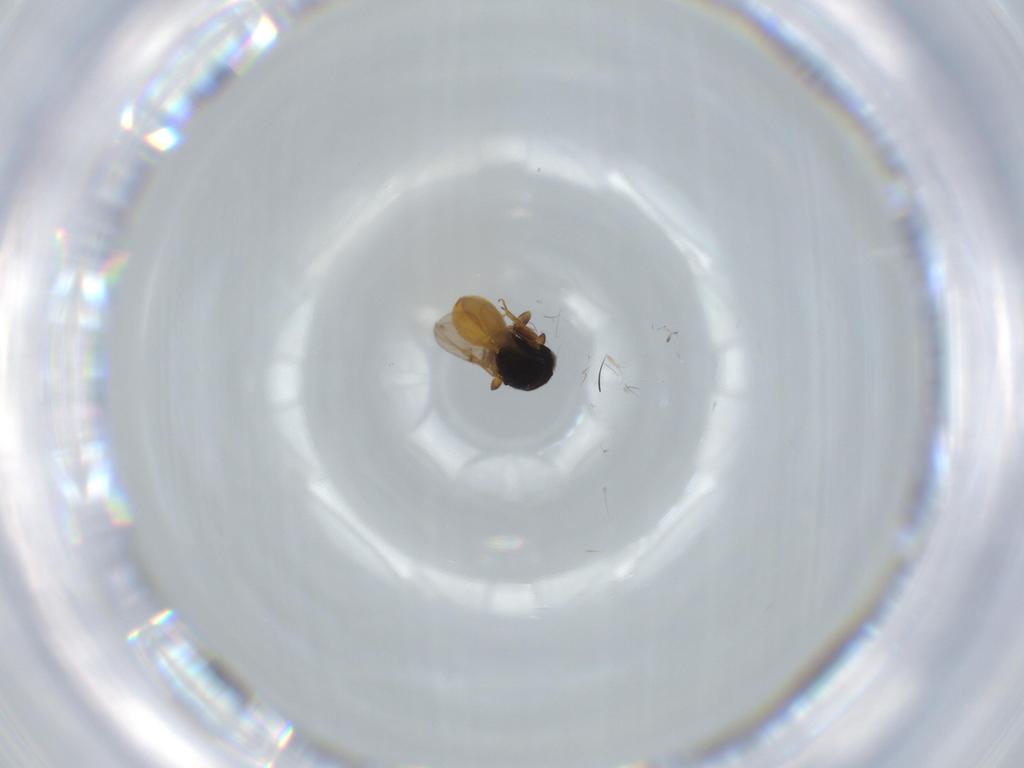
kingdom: Animalia
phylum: Arthropoda
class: Insecta
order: Hymenoptera
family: Scelionidae
